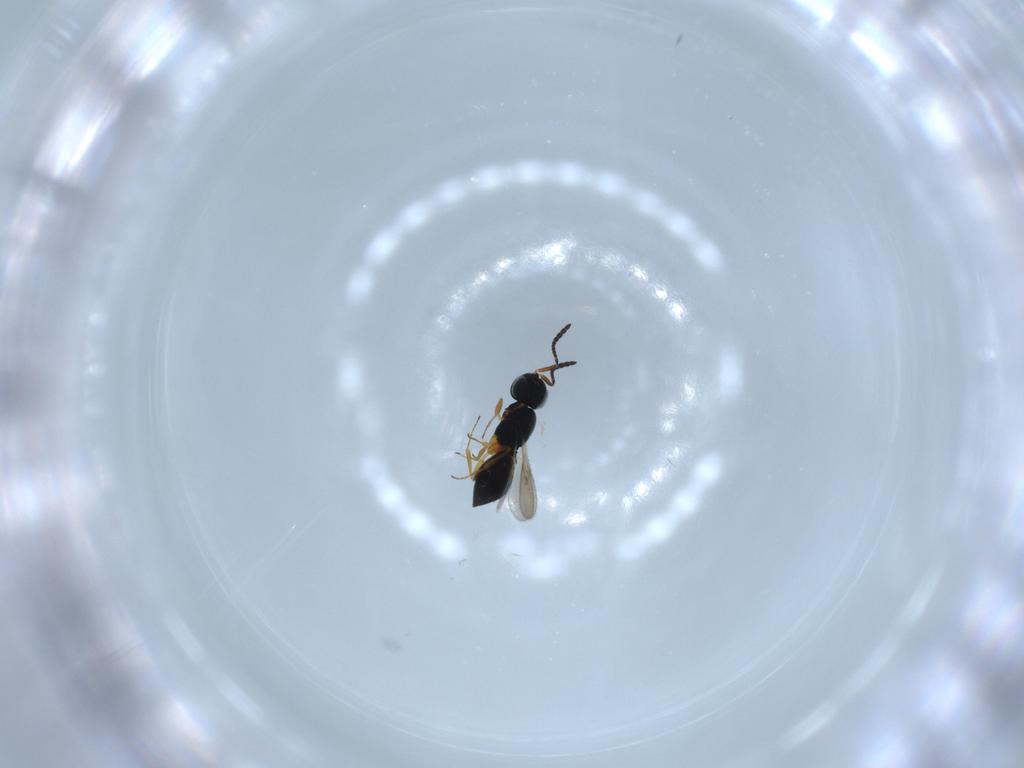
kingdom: Animalia
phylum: Arthropoda
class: Insecta
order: Hymenoptera
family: Scelionidae
